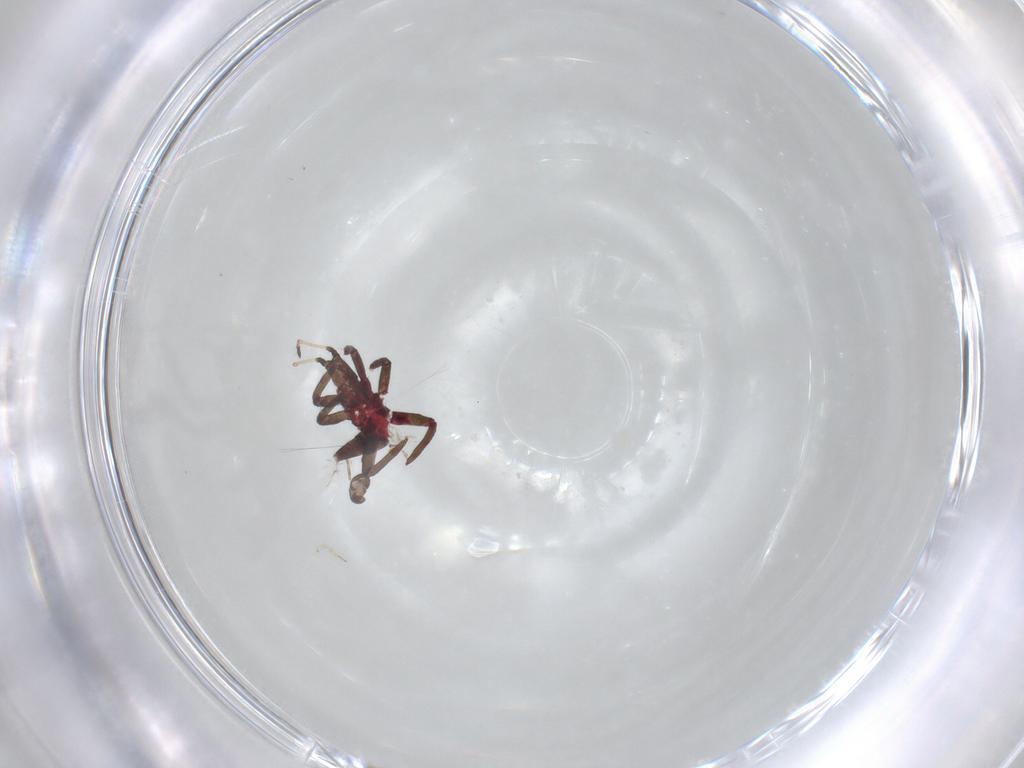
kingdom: Animalia
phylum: Arthropoda
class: Insecta
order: Diptera
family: Keroplatidae
